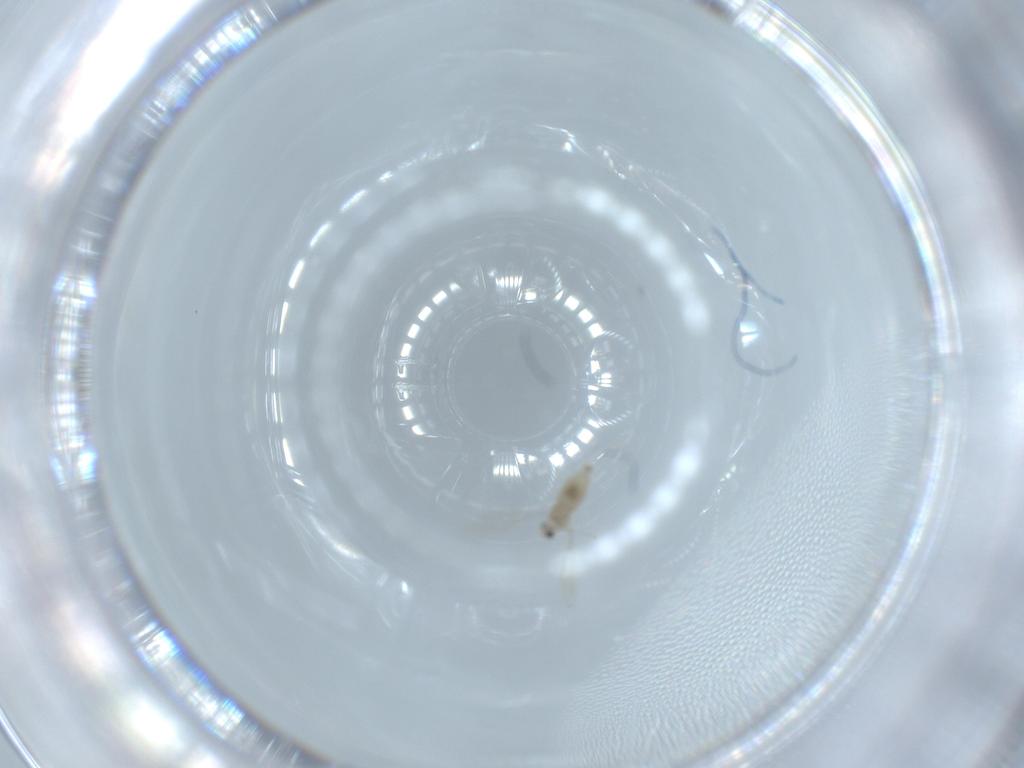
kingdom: Animalia
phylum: Arthropoda
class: Insecta
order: Diptera
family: Cecidomyiidae
